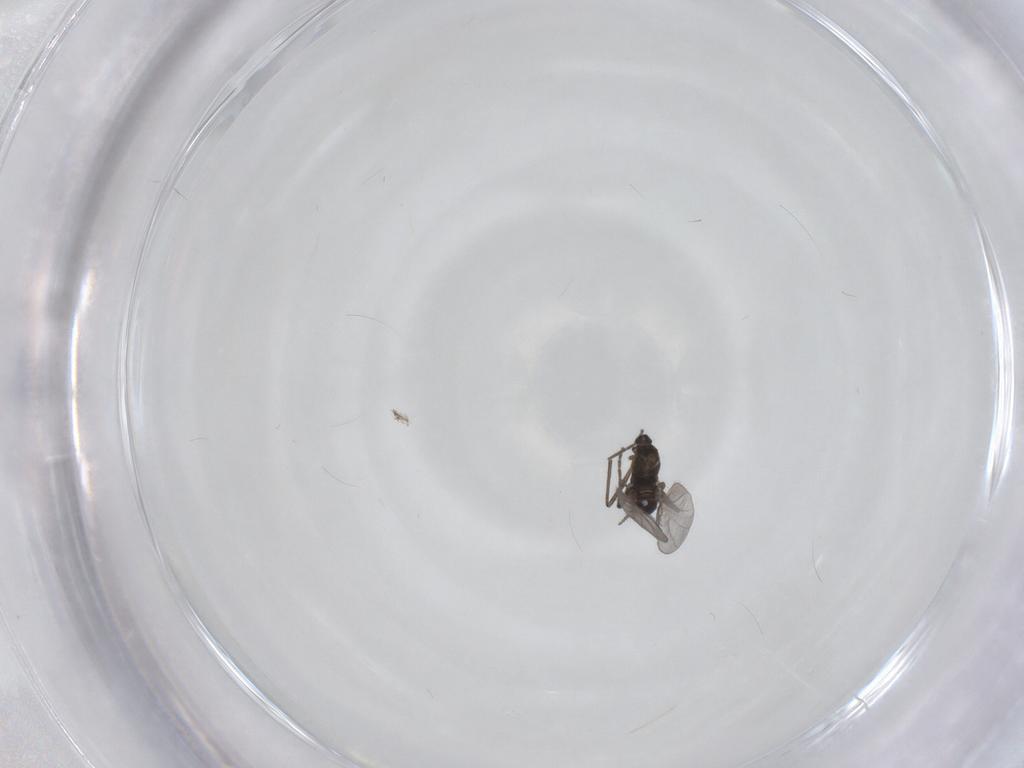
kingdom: Animalia
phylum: Arthropoda
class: Insecta
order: Diptera
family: Cecidomyiidae
